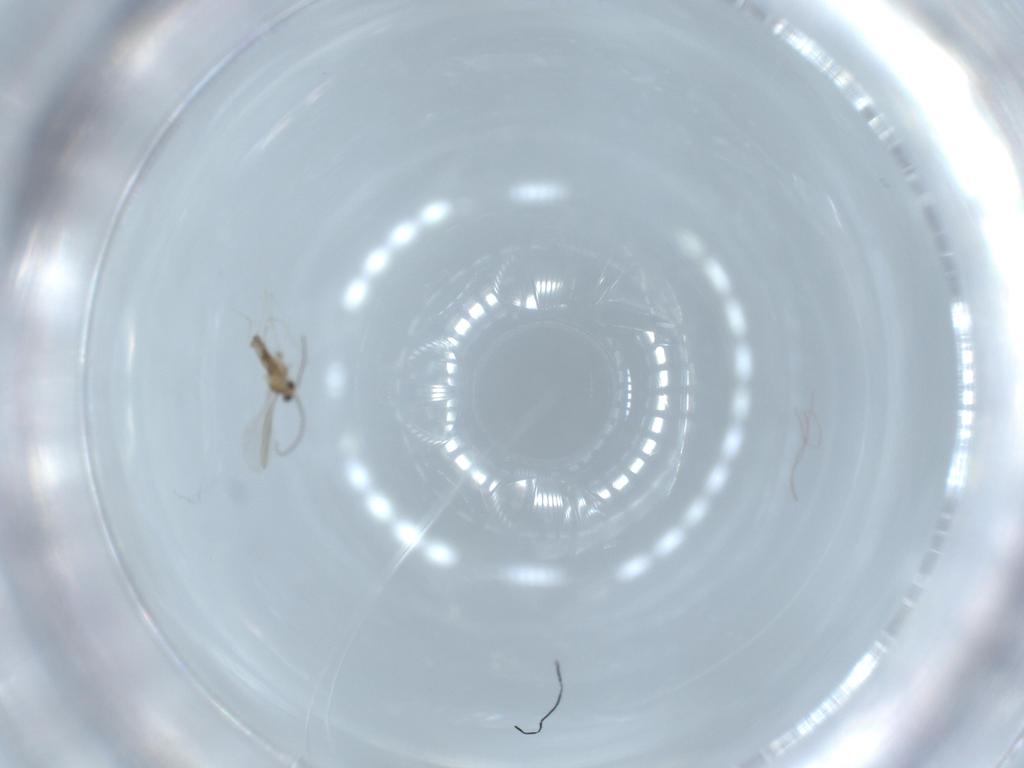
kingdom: Animalia
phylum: Arthropoda
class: Insecta
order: Diptera
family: Cecidomyiidae
